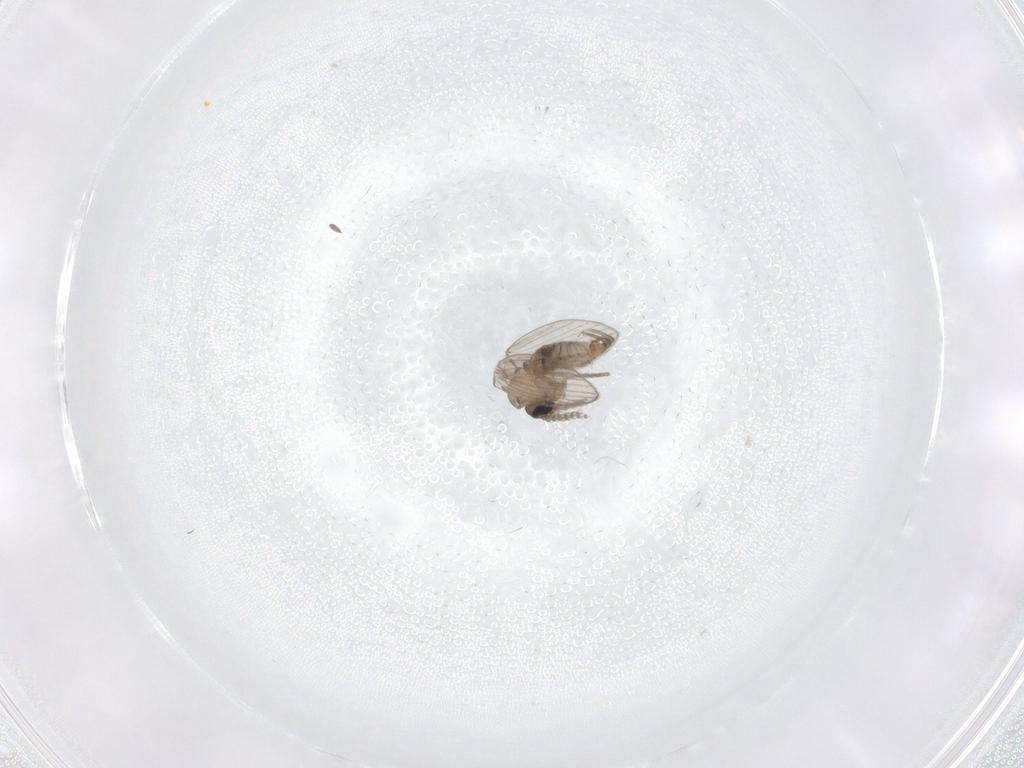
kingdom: Animalia
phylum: Arthropoda
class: Insecta
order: Diptera
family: Psychodidae
